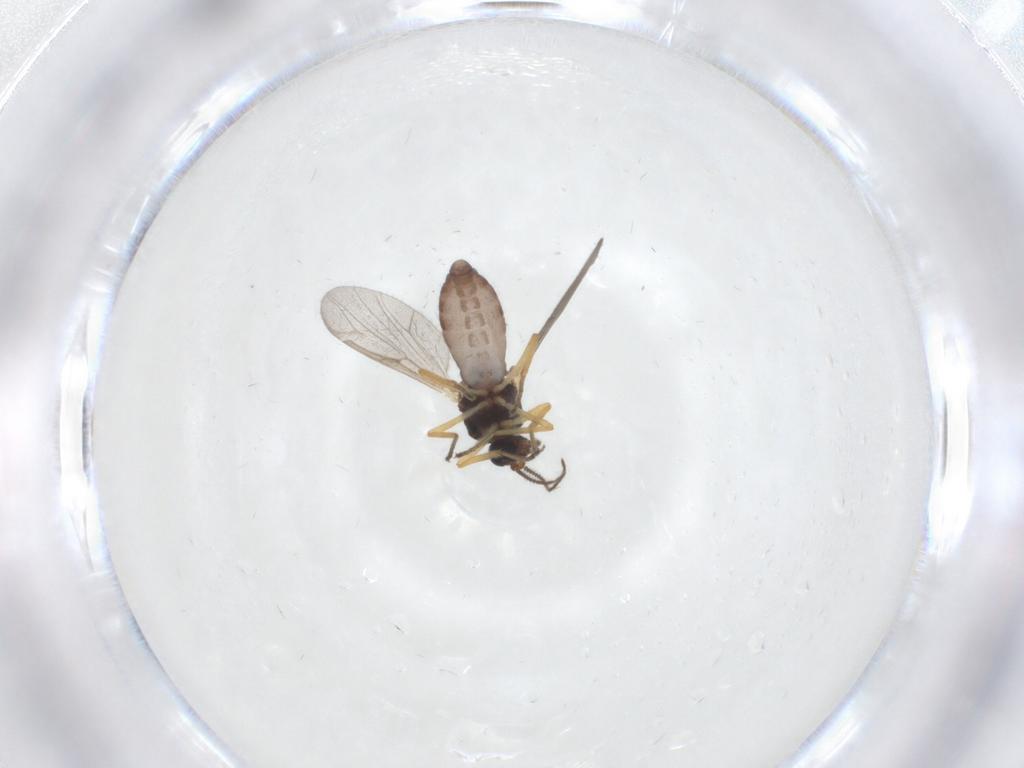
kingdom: Animalia
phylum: Arthropoda
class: Insecta
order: Diptera
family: Ceratopogonidae
